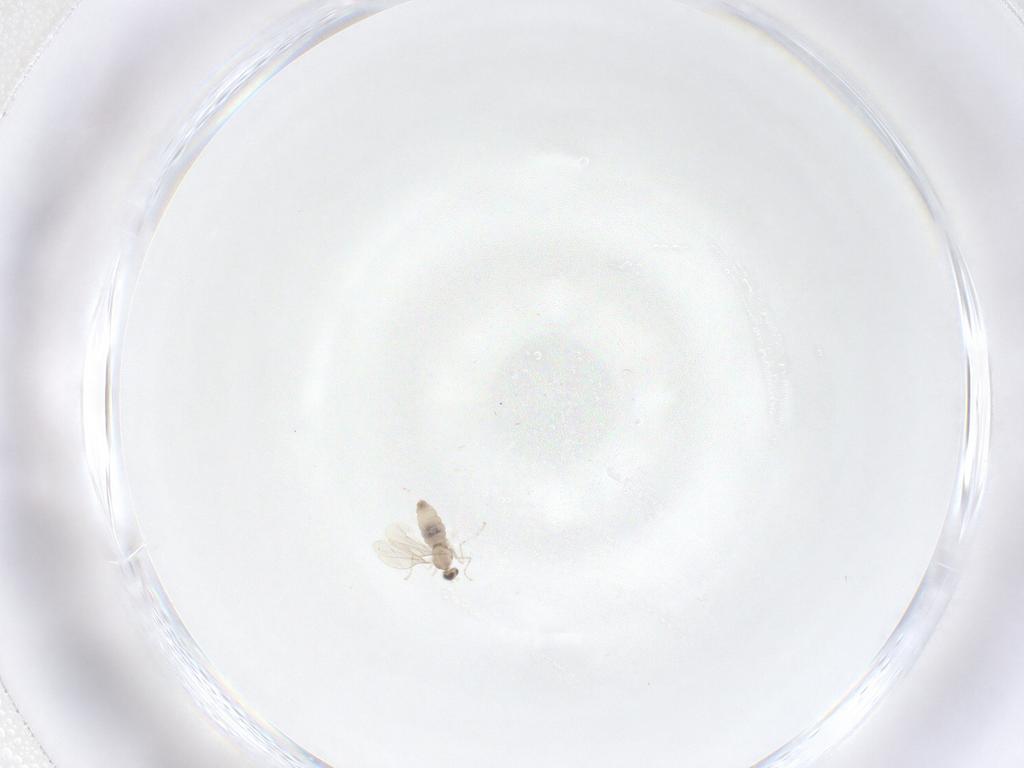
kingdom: Animalia
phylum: Arthropoda
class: Insecta
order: Diptera
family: Cecidomyiidae
